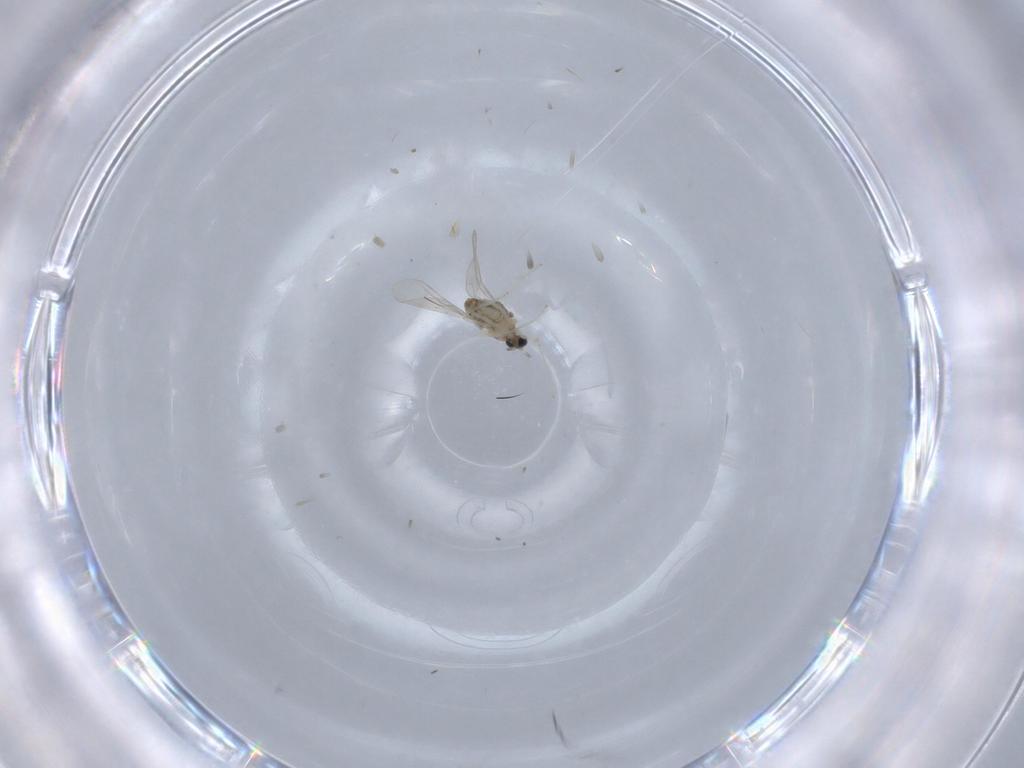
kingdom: Animalia
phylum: Arthropoda
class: Insecta
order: Diptera
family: Cecidomyiidae
